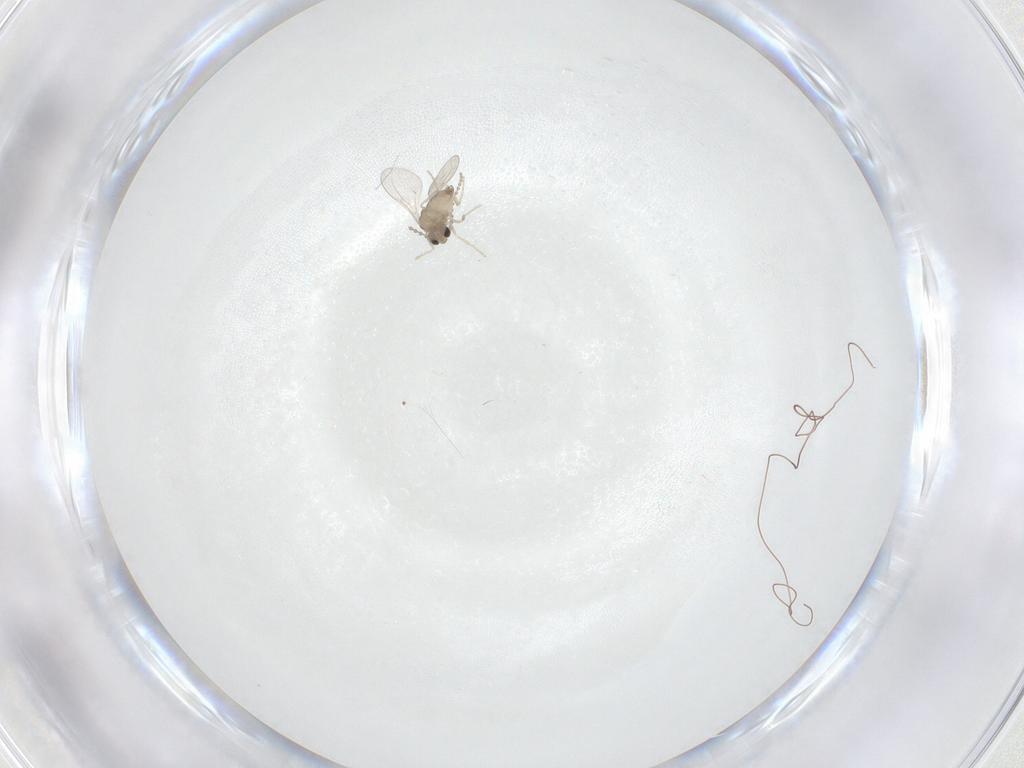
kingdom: Animalia
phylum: Arthropoda
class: Insecta
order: Diptera
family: Cecidomyiidae
